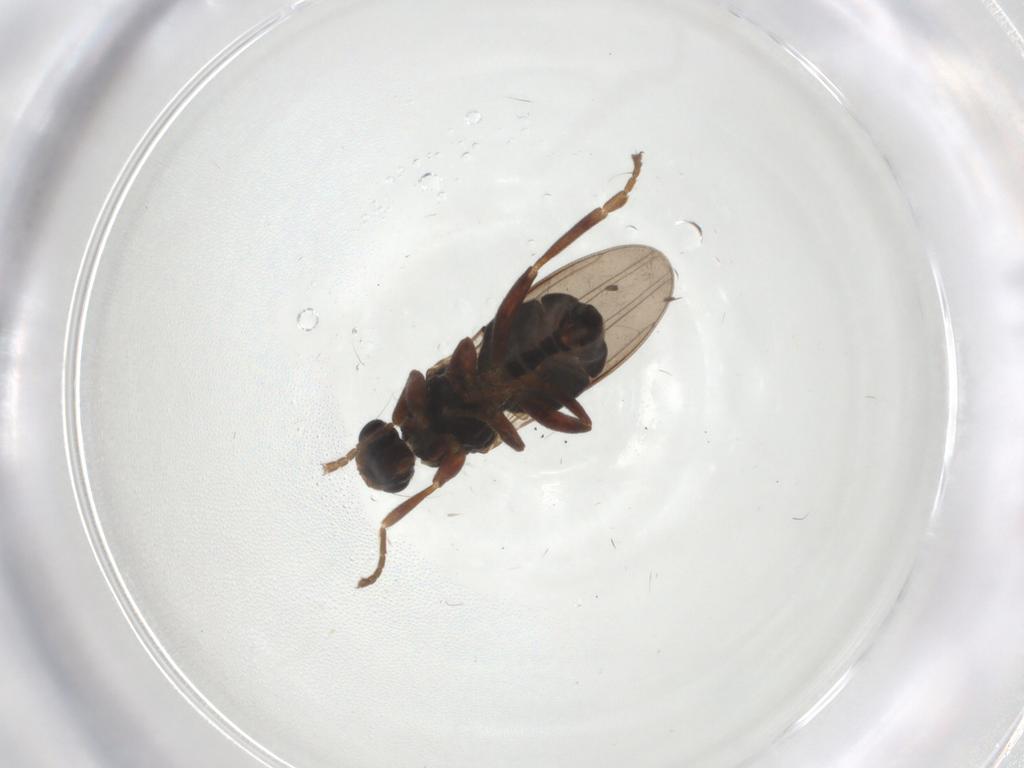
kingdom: Animalia
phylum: Arthropoda
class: Insecta
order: Diptera
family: Sciaridae
